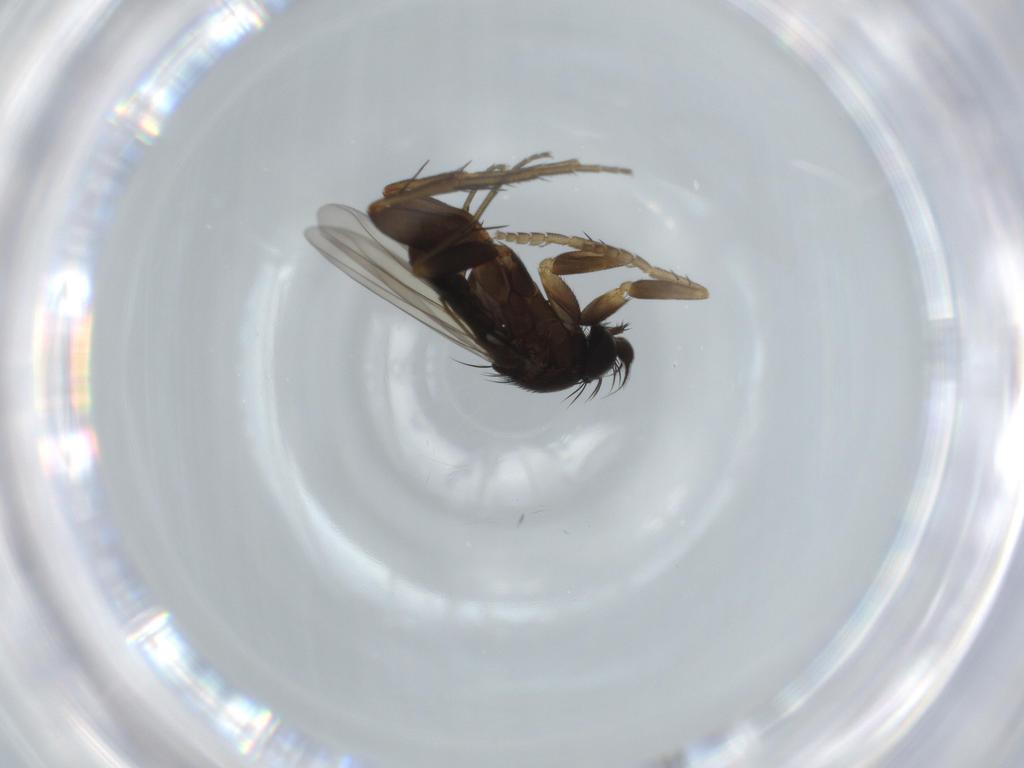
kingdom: Animalia
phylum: Arthropoda
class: Insecta
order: Diptera
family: Phoridae
